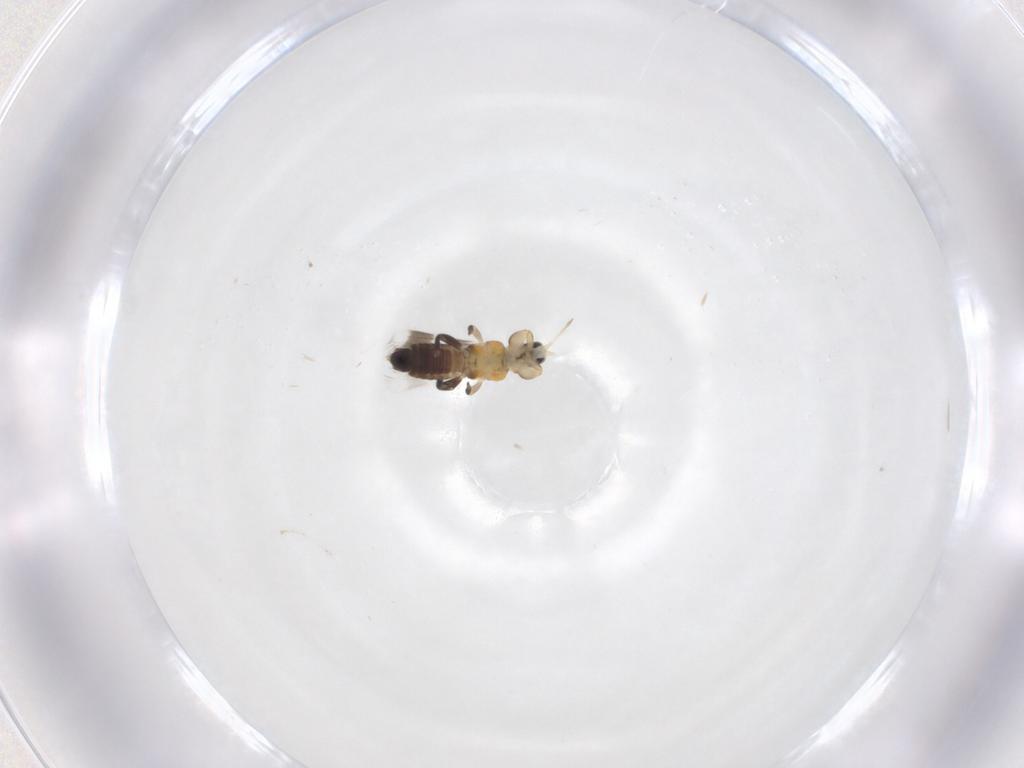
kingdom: Animalia
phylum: Arthropoda
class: Insecta
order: Thysanoptera
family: Aeolothripidae
